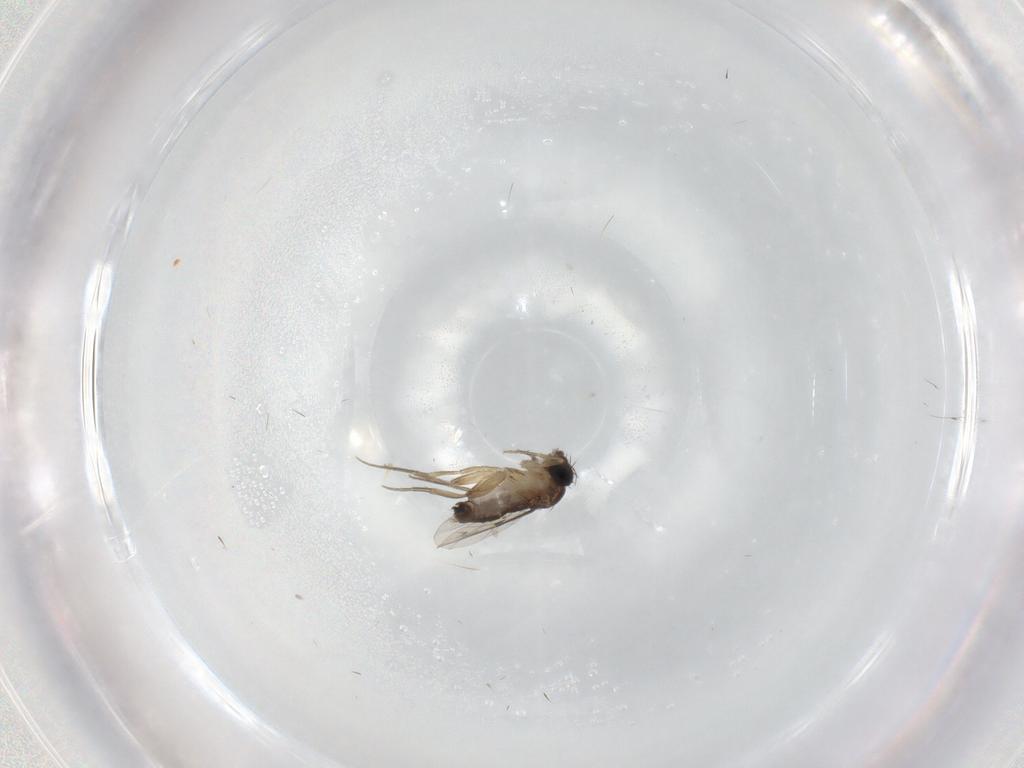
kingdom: Animalia
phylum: Arthropoda
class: Insecta
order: Diptera
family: Phoridae
